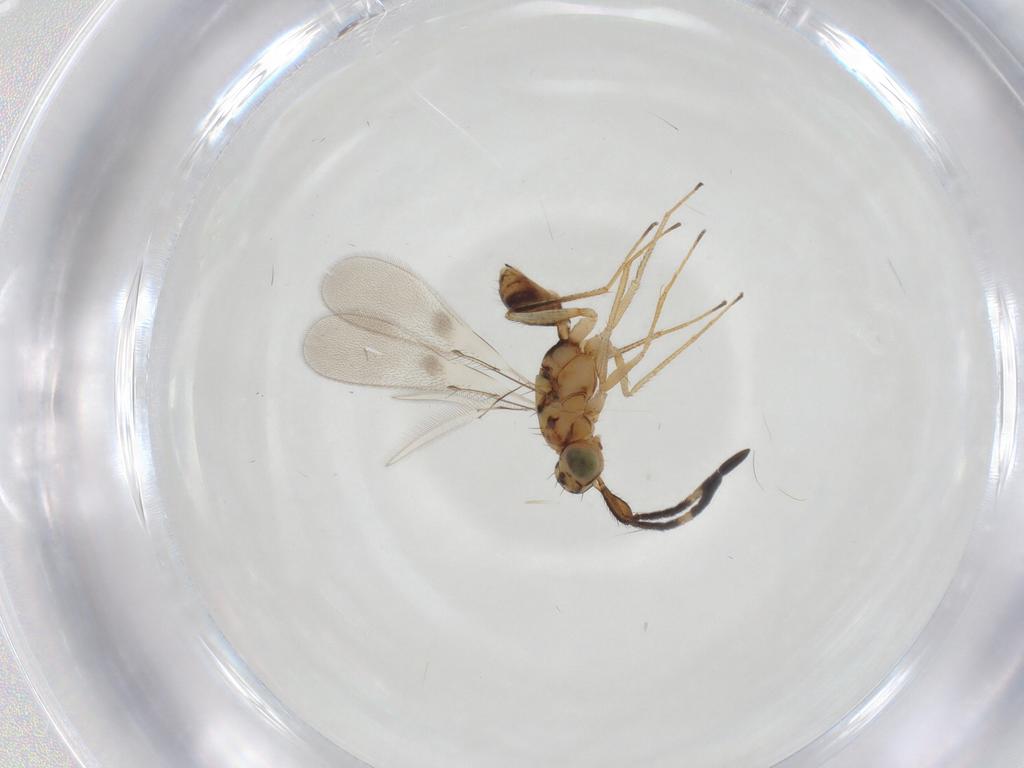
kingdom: Animalia
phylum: Arthropoda
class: Insecta
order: Hymenoptera
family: Mymaridae
